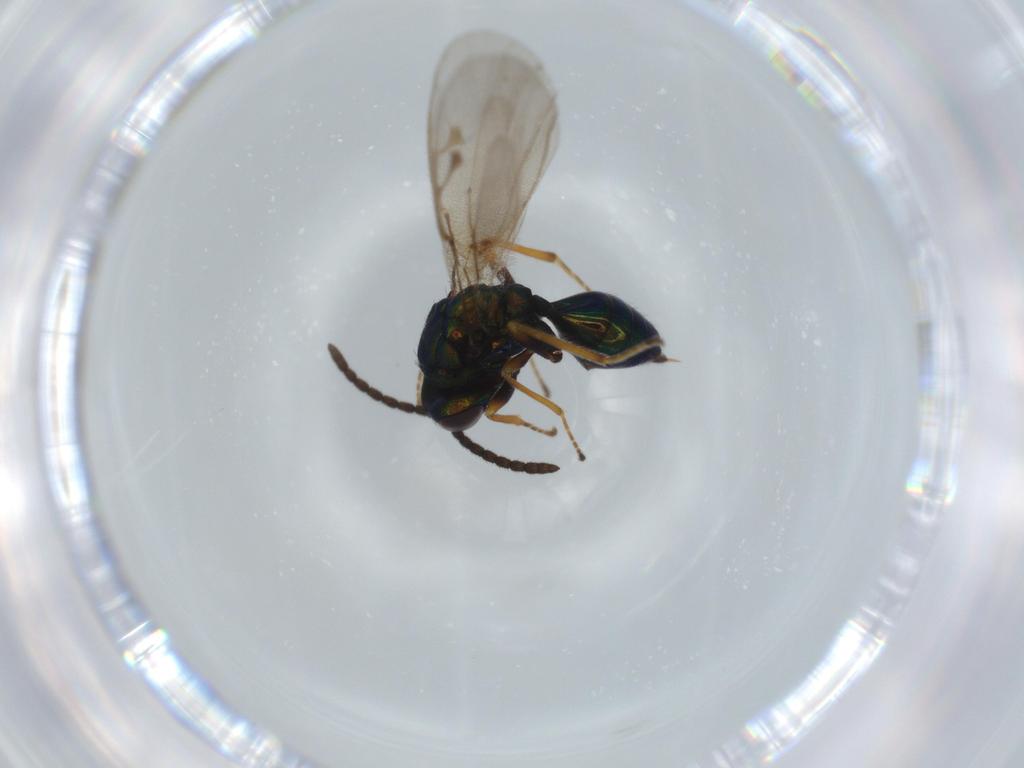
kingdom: Animalia
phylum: Arthropoda
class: Insecta
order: Hymenoptera
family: Pteromalidae
